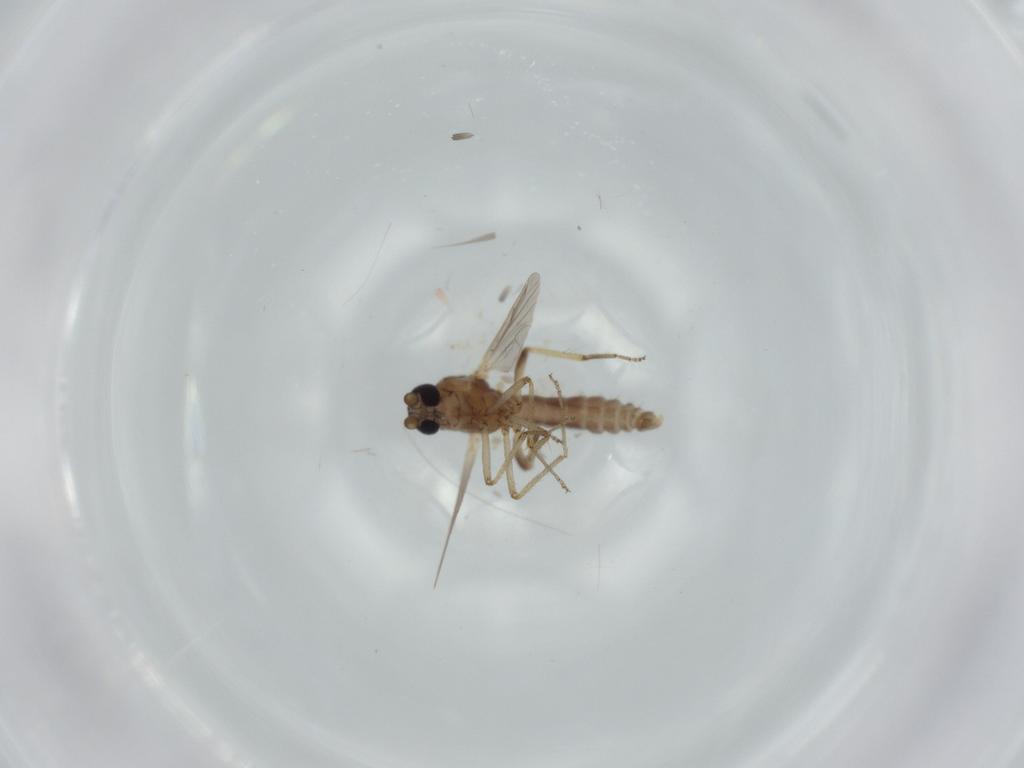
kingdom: Animalia
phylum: Arthropoda
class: Insecta
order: Diptera
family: Ceratopogonidae
